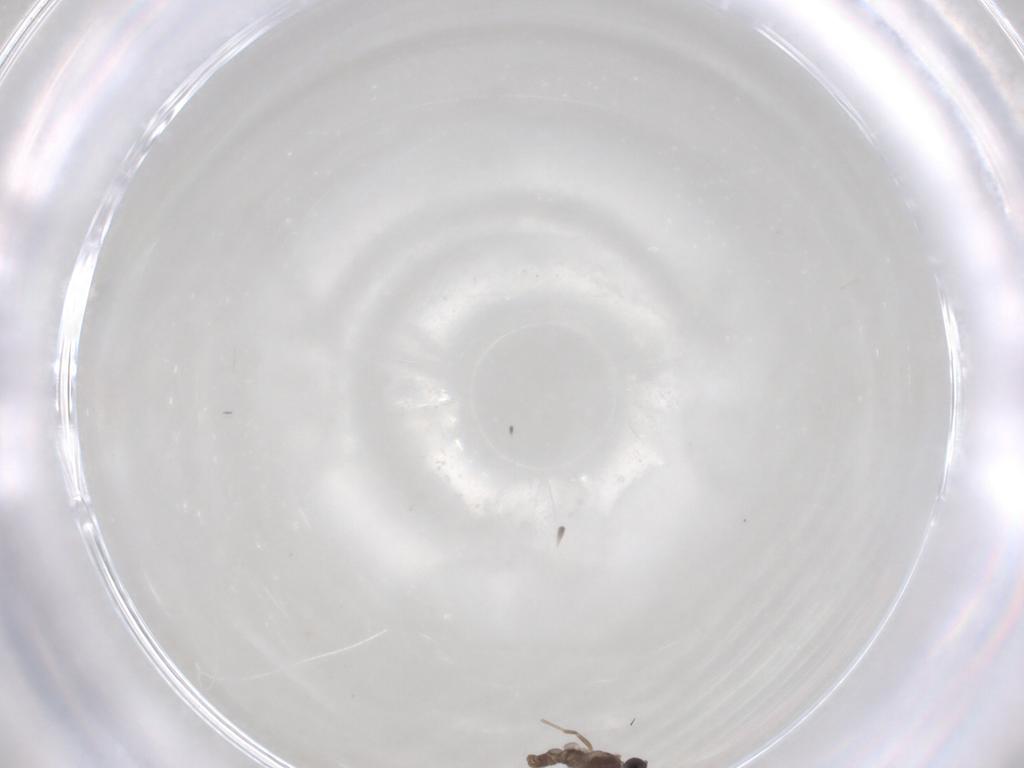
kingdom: Animalia
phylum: Arthropoda
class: Insecta
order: Diptera
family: Cecidomyiidae
